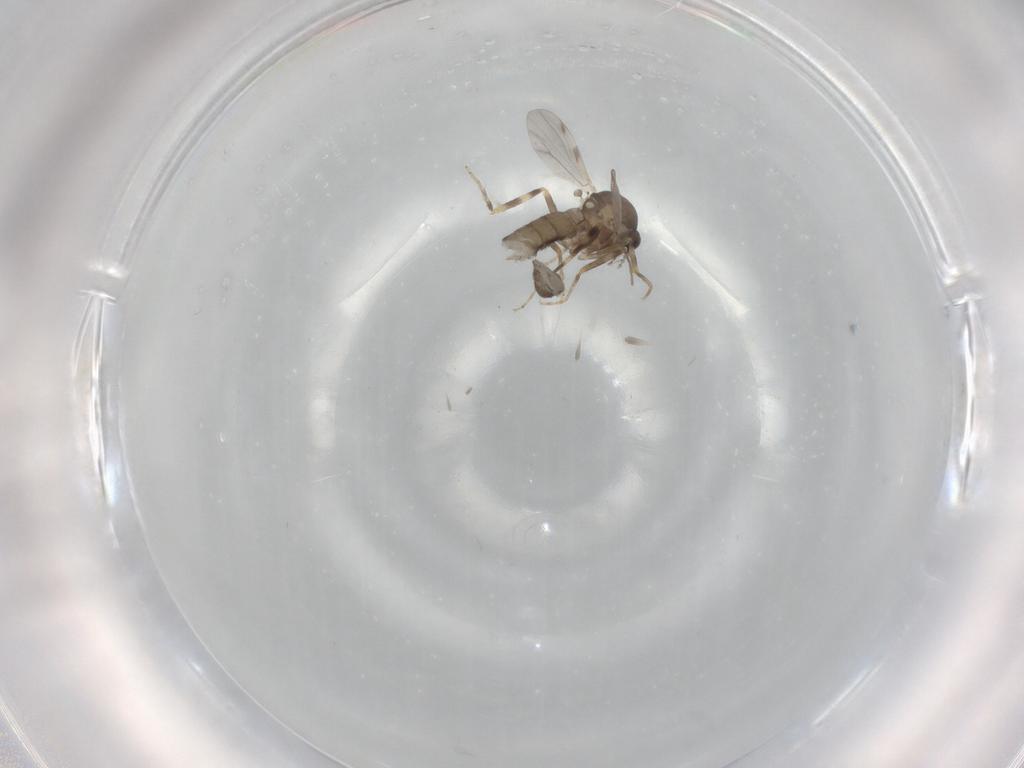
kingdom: Animalia
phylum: Arthropoda
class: Insecta
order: Diptera
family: Ceratopogonidae
